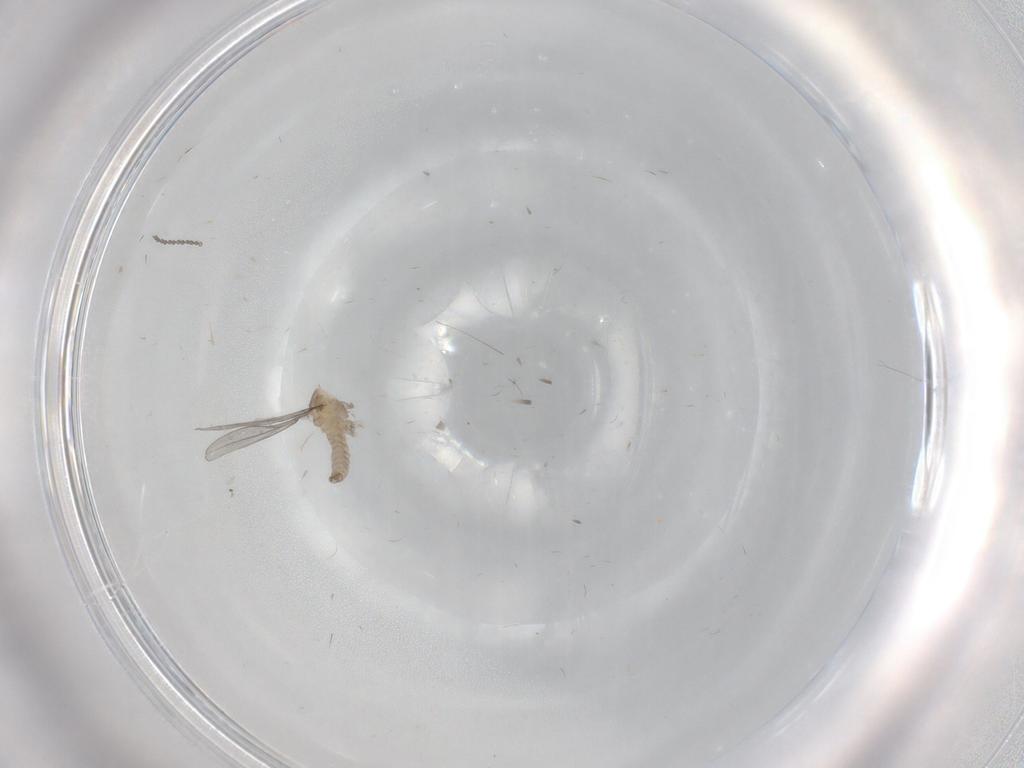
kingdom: Animalia
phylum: Arthropoda
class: Insecta
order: Diptera
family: Cecidomyiidae
